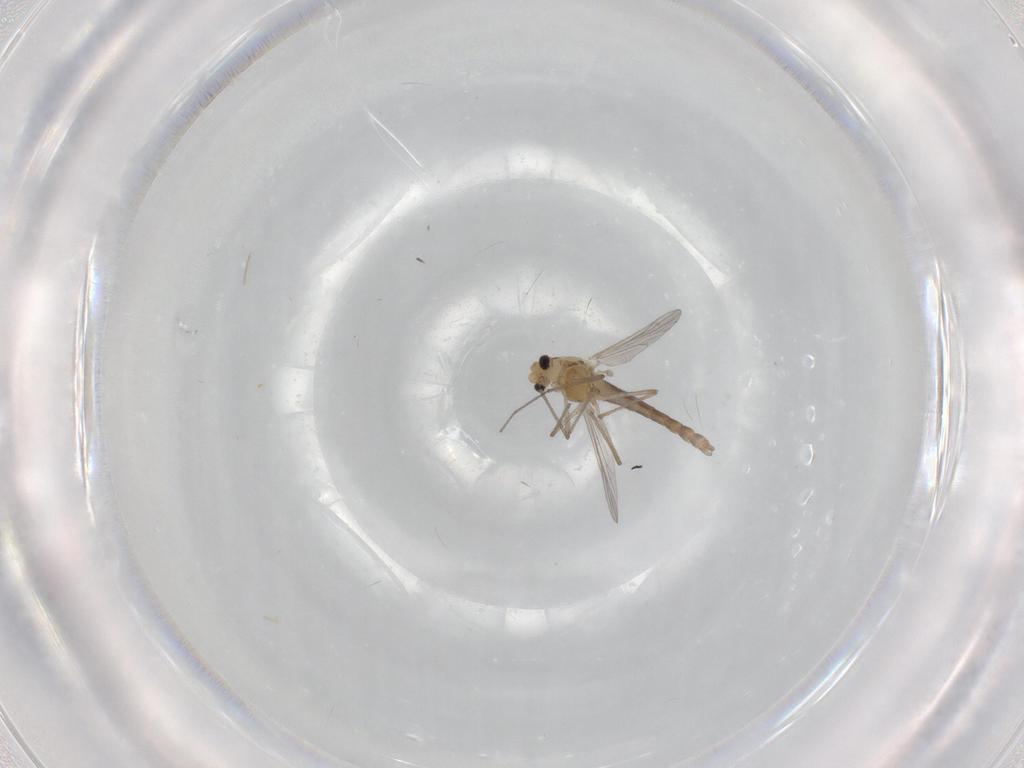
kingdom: Animalia
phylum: Arthropoda
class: Insecta
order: Diptera
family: Chironomidae
